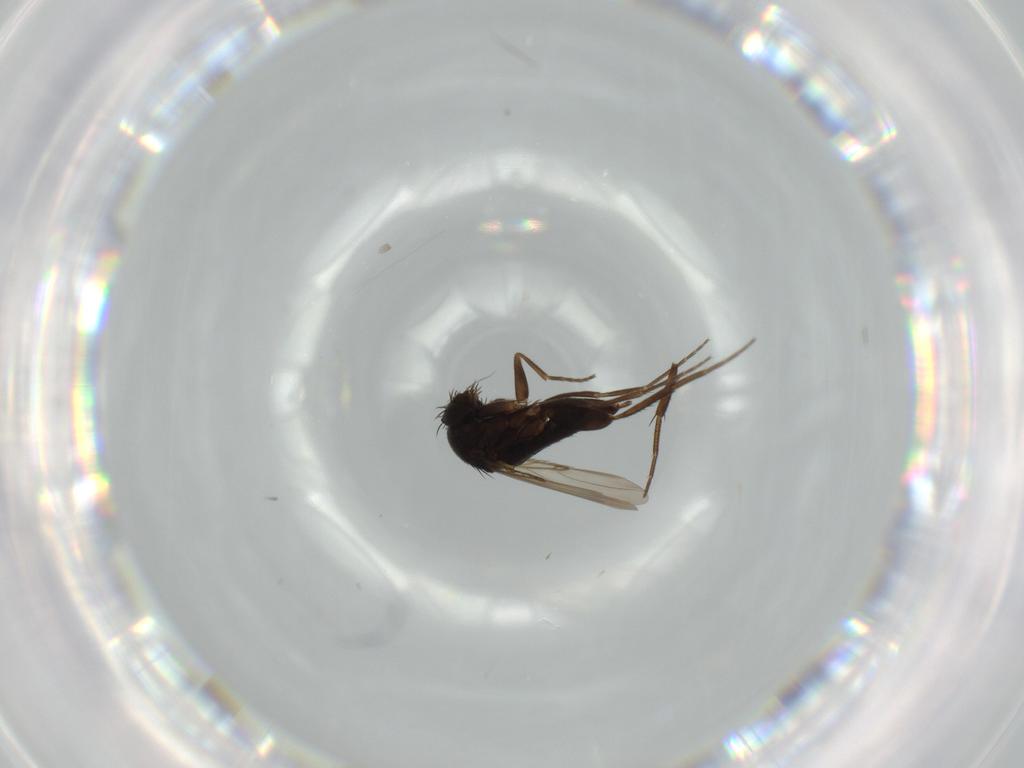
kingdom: Animalia
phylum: Arthropoda
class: Insecta
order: Diptera
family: Phoridae
